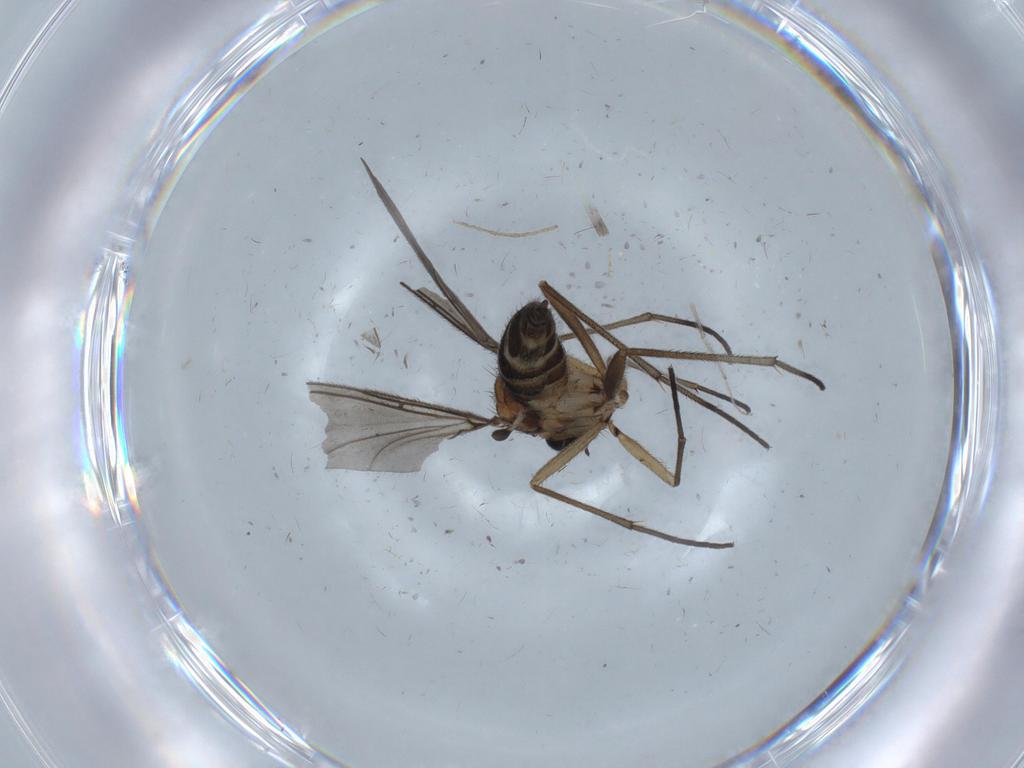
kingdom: Animalia
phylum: Arthropoda
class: Insecta
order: Diptera
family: Sciaridae
